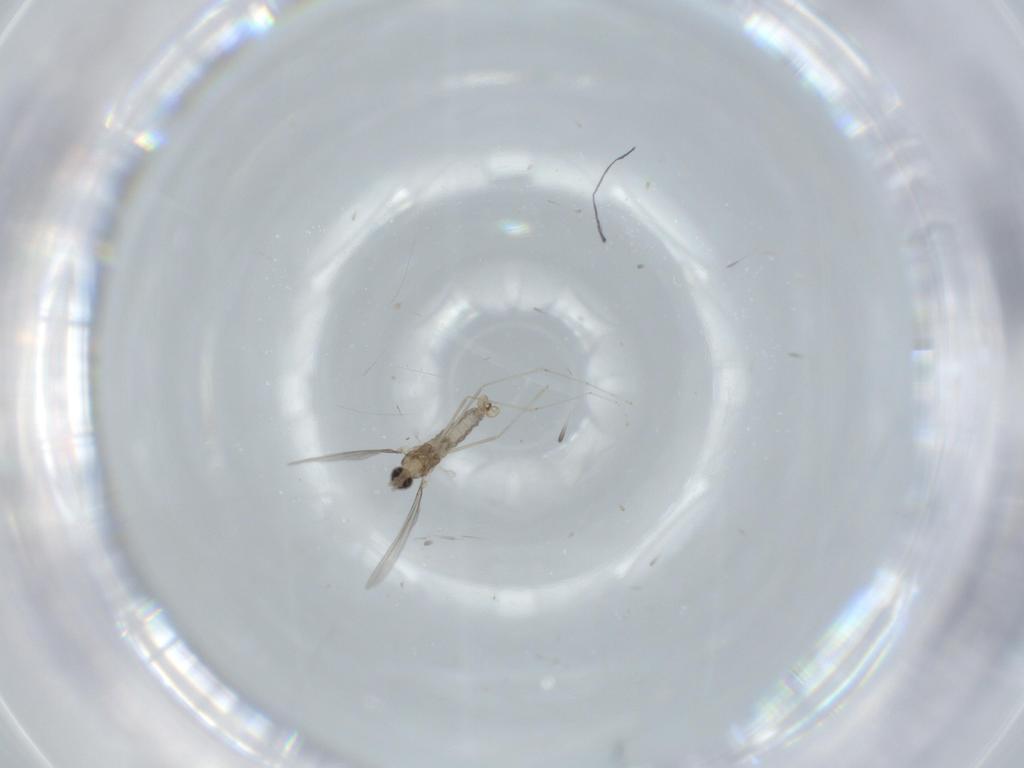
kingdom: Animalia
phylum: Arthropoda
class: Insecta
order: Diptera
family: Cecidomyiidae
